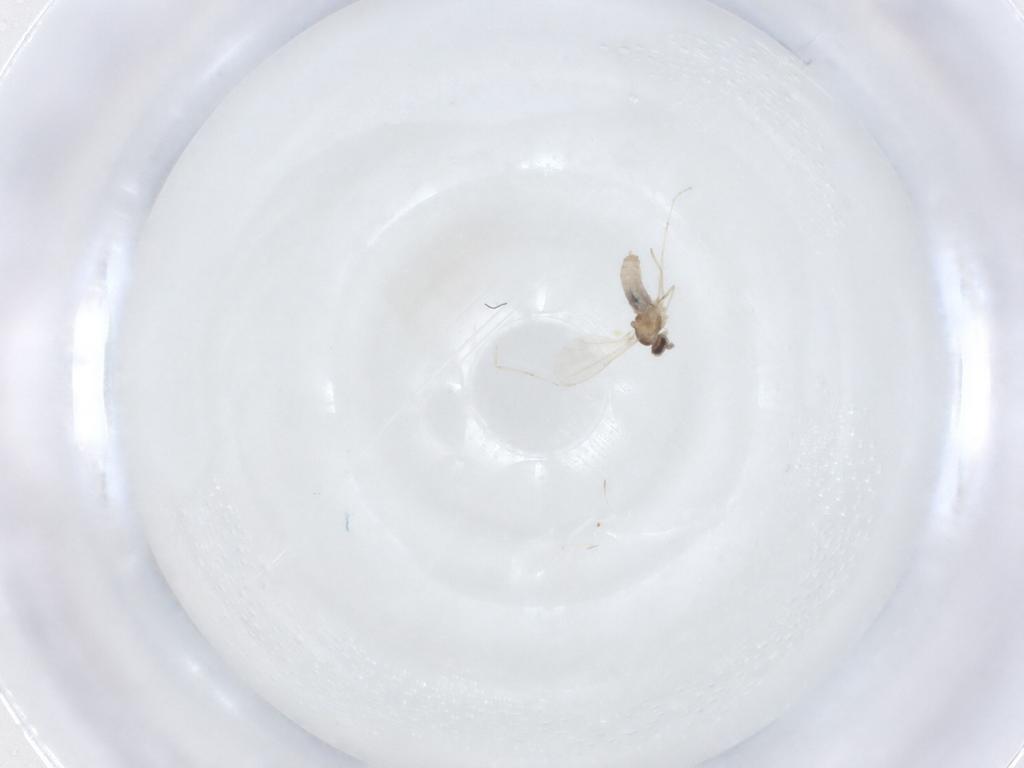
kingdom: Animalia
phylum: Arthropoda
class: Insecta
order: Diptera
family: Cecidomyiidae
